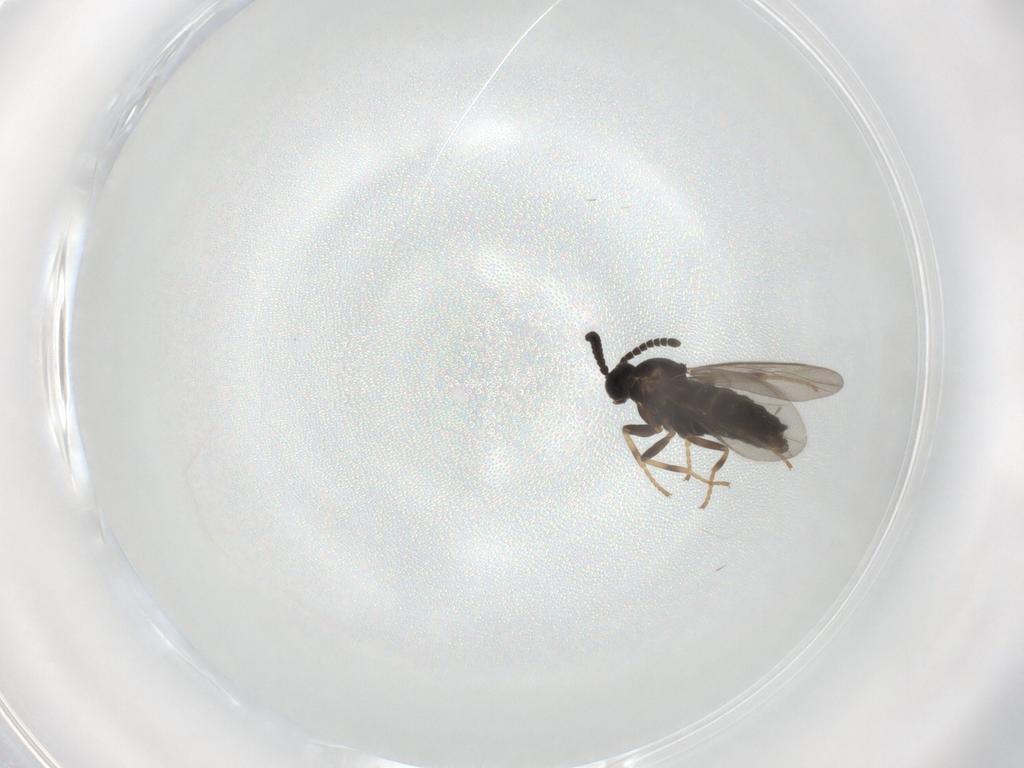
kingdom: Animalia
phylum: Arthropoda
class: Insecta
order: Diptera
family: Scatopsidae
